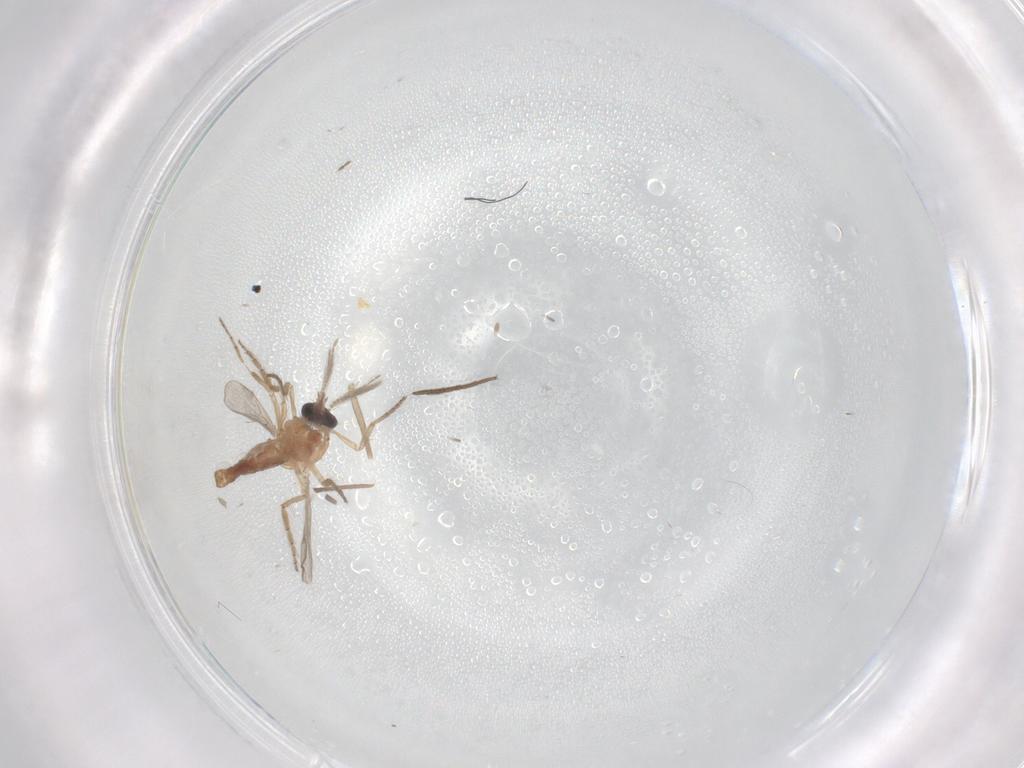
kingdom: Animalia
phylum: Arthropoda
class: Insecta
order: Diptera
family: Chironomidae
